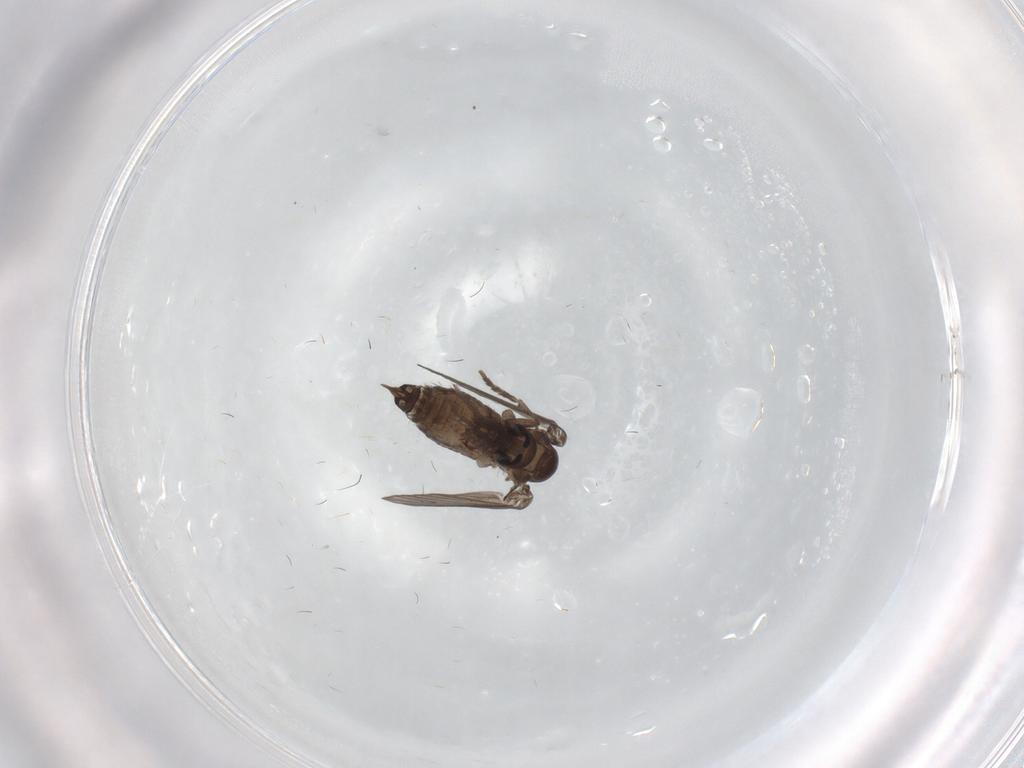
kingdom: Animalia
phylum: Arthropoda
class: Insecta
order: Diptera
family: Psychodidae
